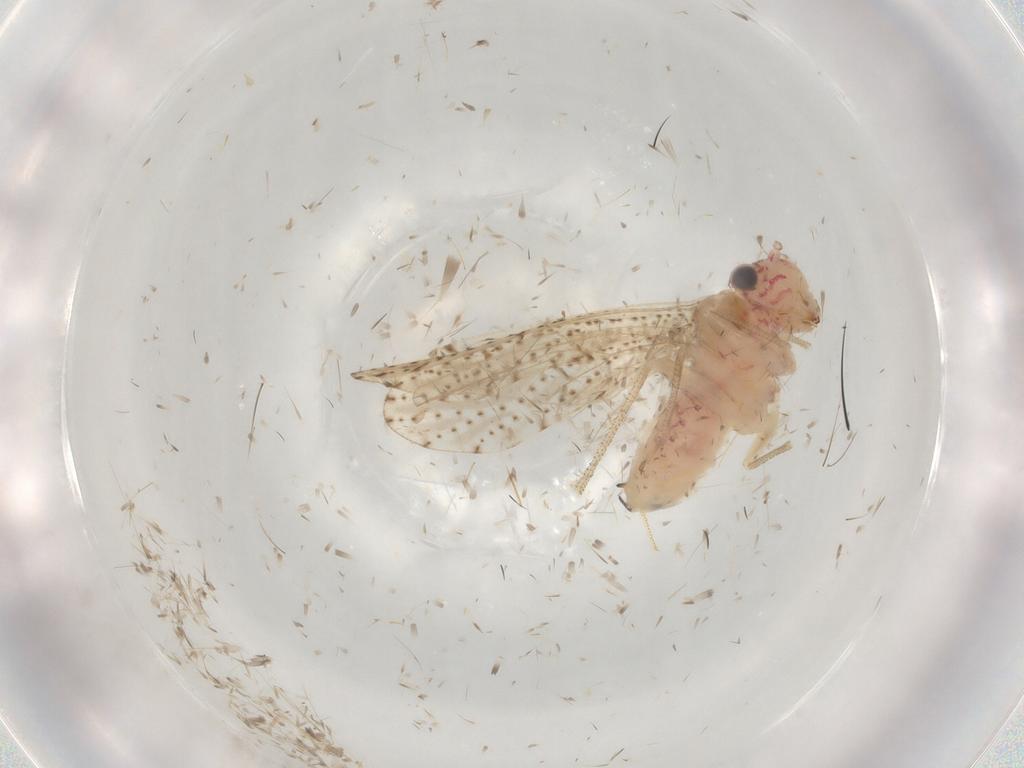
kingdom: Animalia
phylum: Arthropoda
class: Insecta
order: Psocodea
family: Philotarsidae
